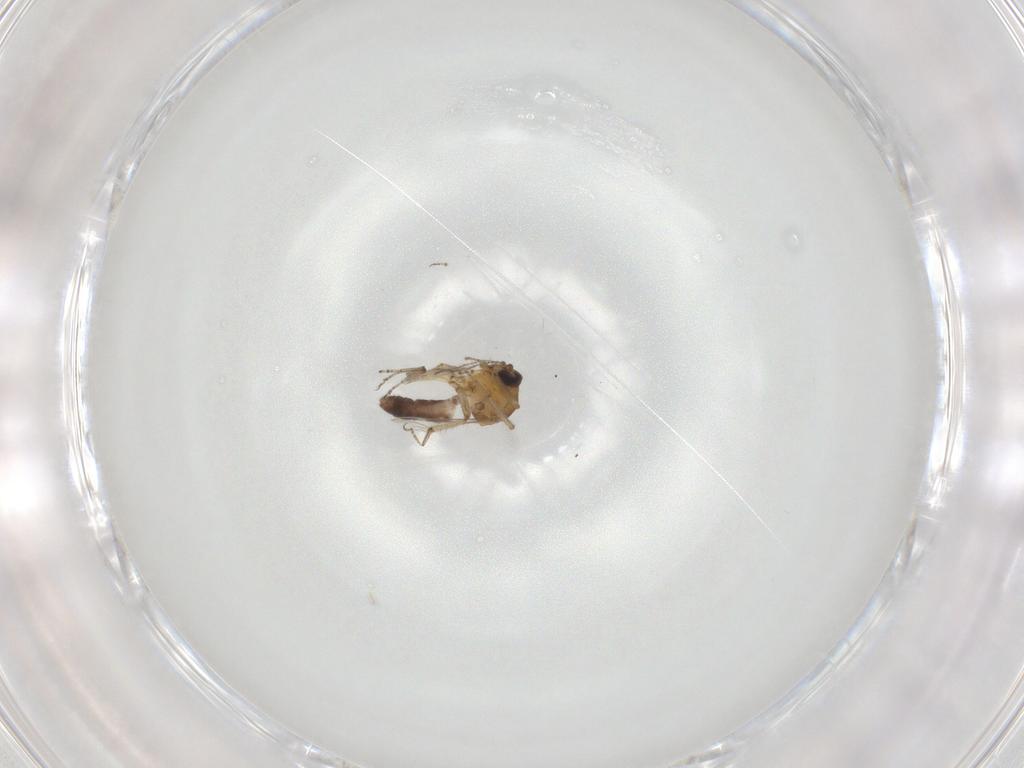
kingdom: Animalia
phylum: Arthropoda
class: Insecta
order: Diptera
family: Ceratopogonidae
